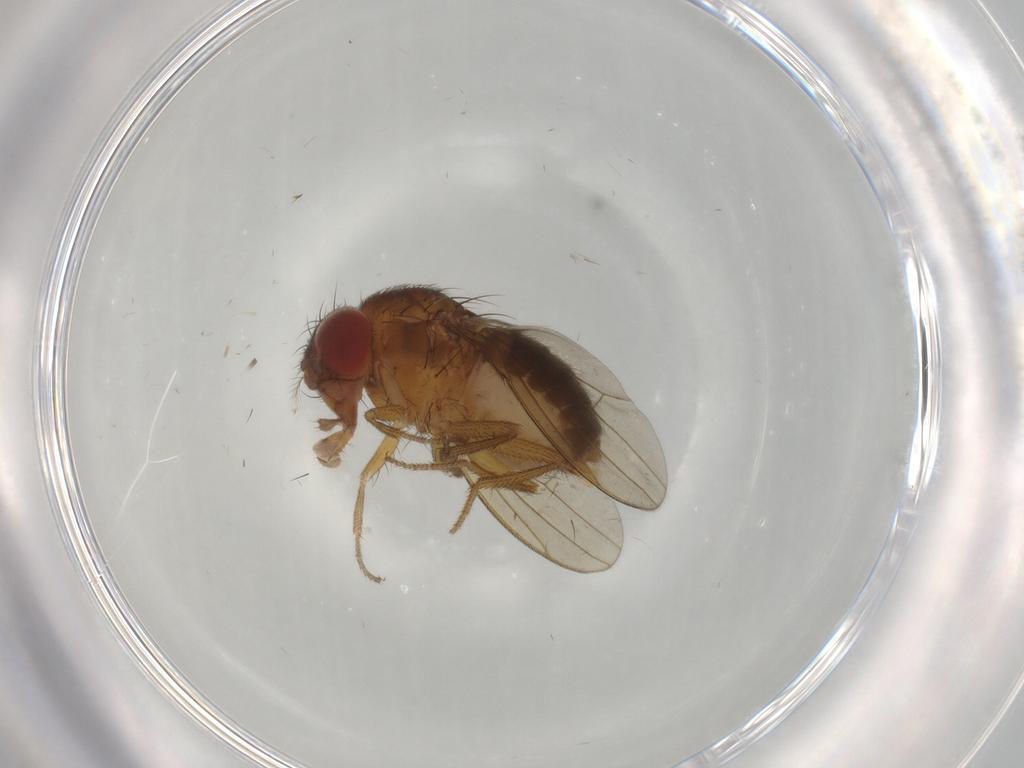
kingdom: Animalia
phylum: Arthropoda
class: Insecta
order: Diptera
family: Drosophilidae
